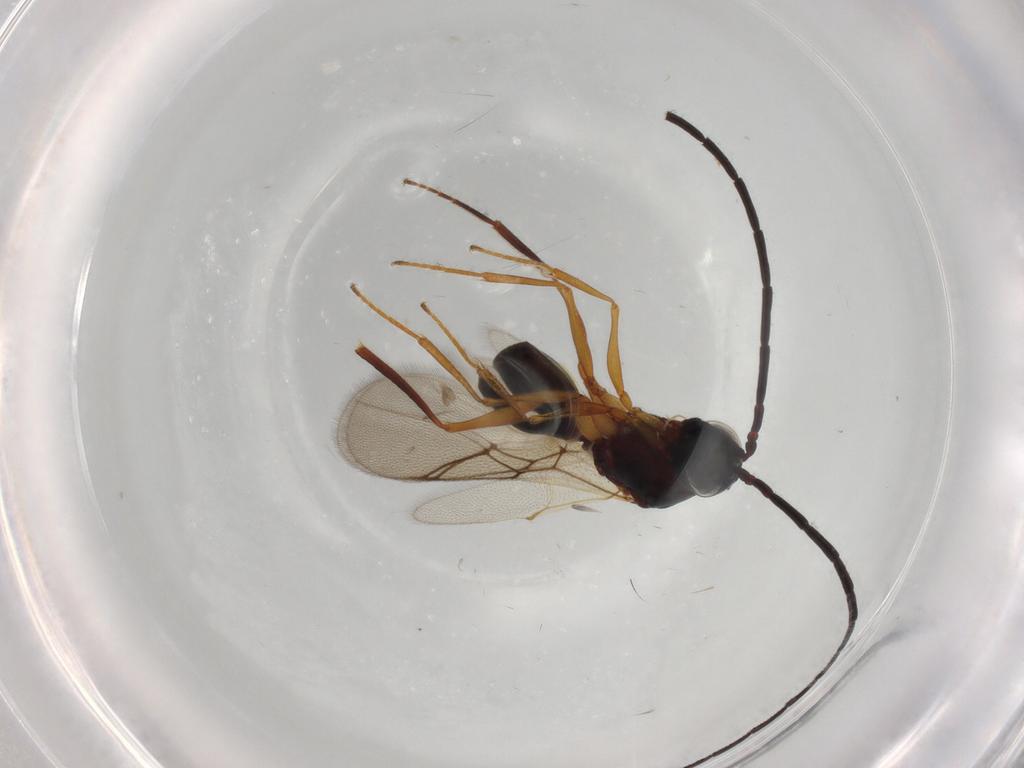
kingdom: Animalia
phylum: Arthropoda
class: Insecta
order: Hymenoptera
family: Figitidae
